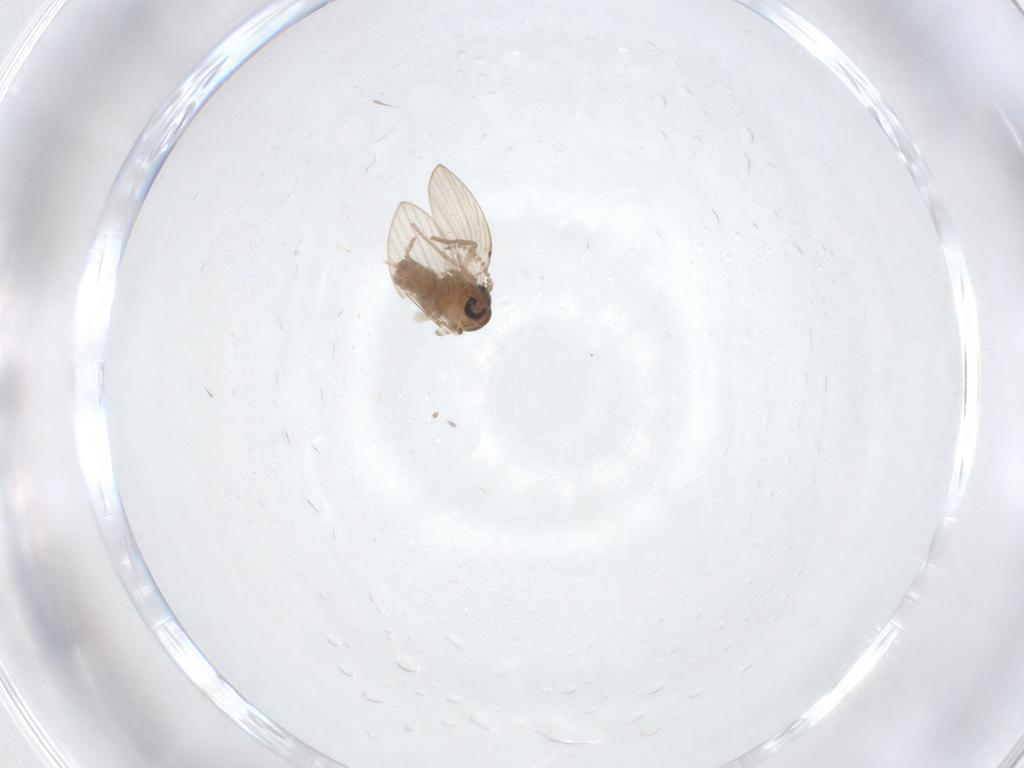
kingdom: Animalia
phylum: Arthropoda
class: Insecta
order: Diptera
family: Psychodidae
